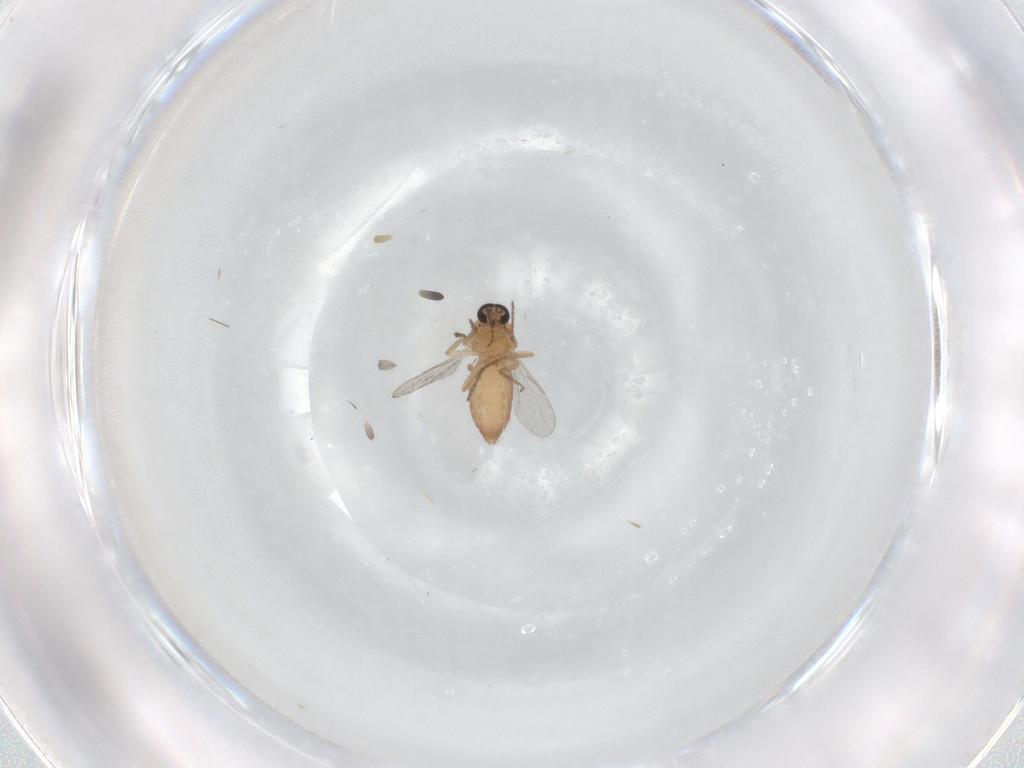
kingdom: Animalia
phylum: Arthropoda
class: Insecta
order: Diptera
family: Ceratopogonidae
